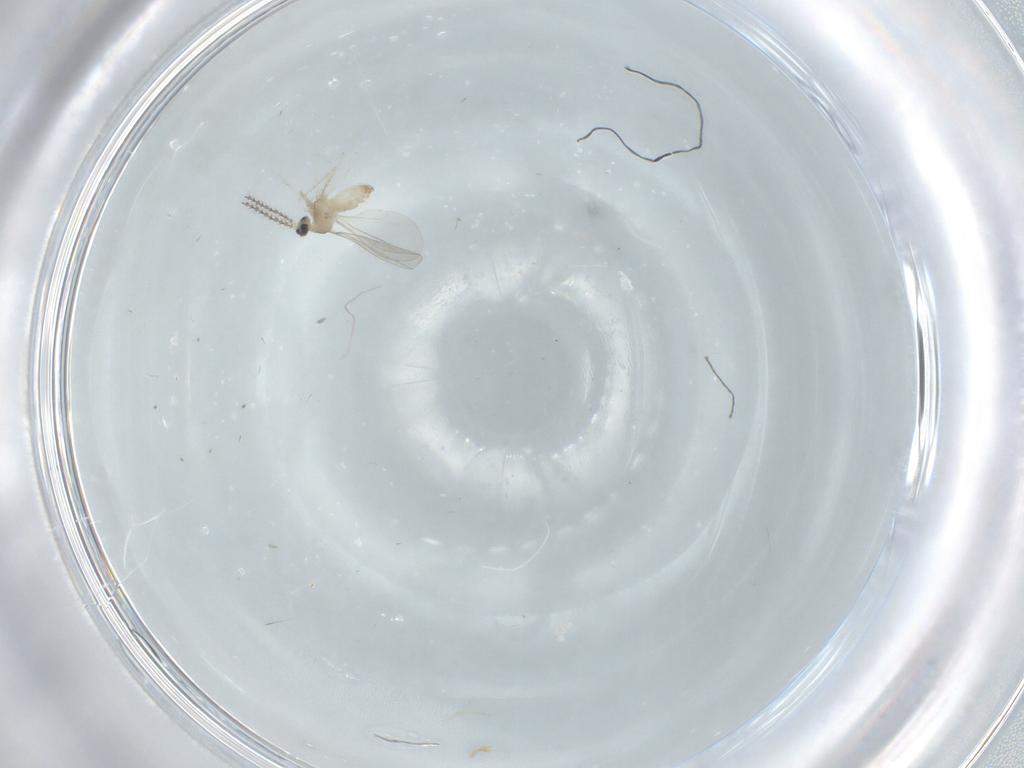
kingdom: Animalia
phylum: Arthropoda
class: Insecta
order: Diptera
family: Cecidomyiidae
